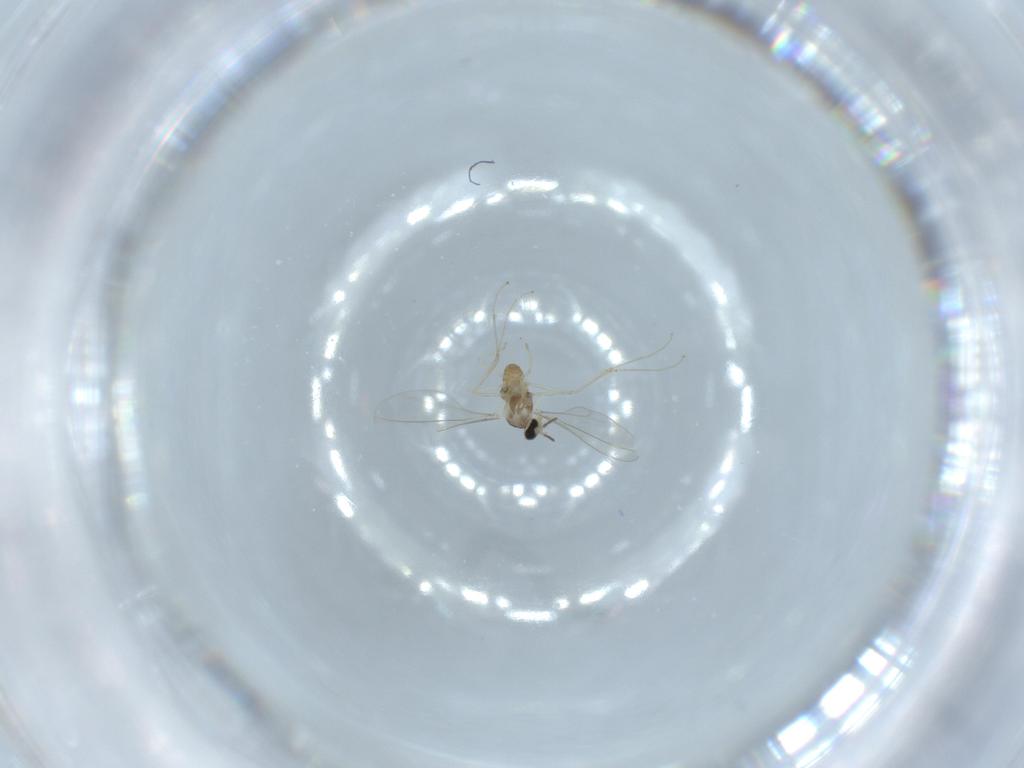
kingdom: Animalia
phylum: Arthropoda
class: Insecta
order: Diptera
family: Cecidomyiidae
